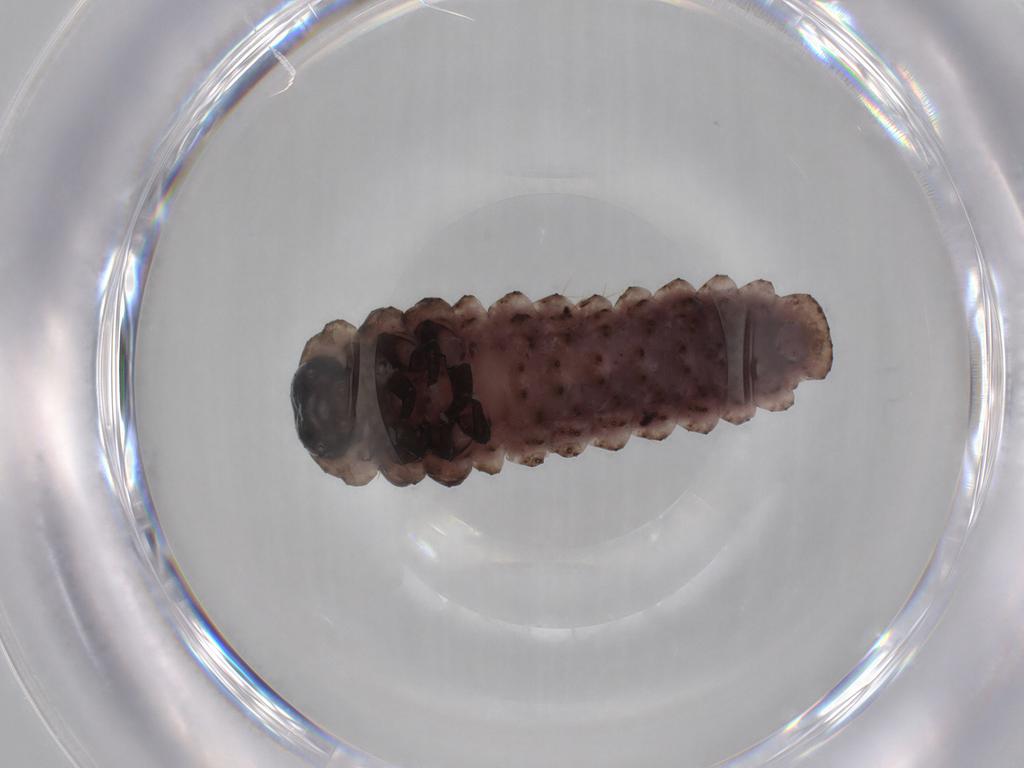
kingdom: Animalia
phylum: Arthropoda
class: Insecta
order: Coleoptera
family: Chrysomelidae
